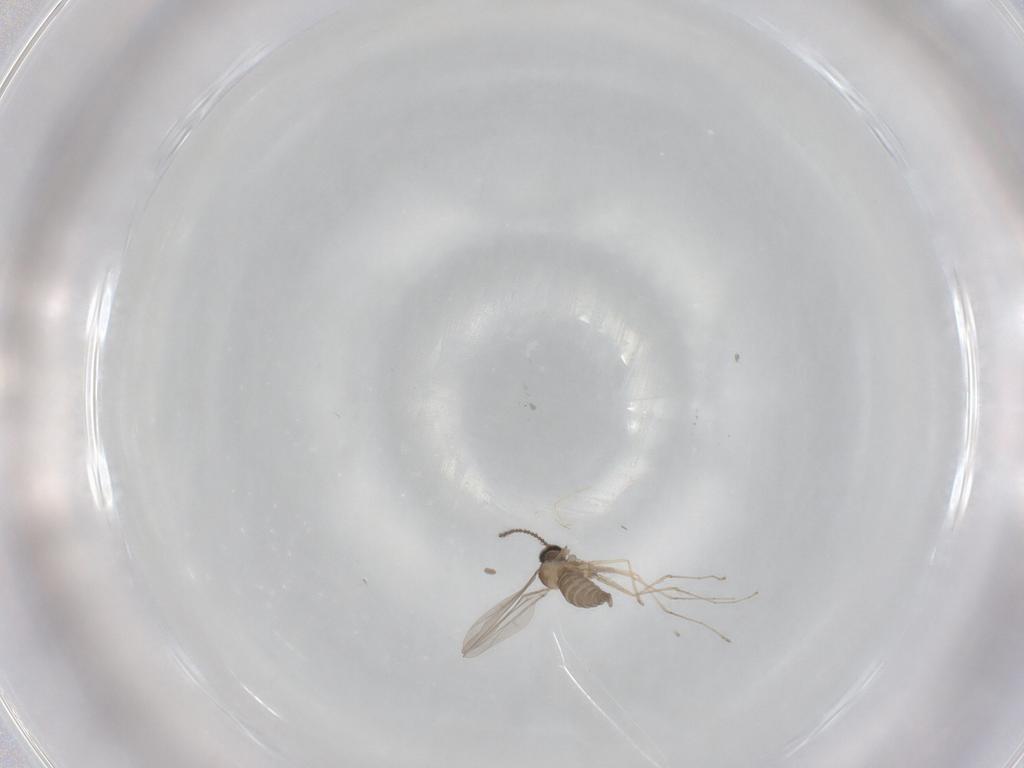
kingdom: Animalia
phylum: Arthropoda
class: Insecta
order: Diptera
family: Cecidomyiidae
